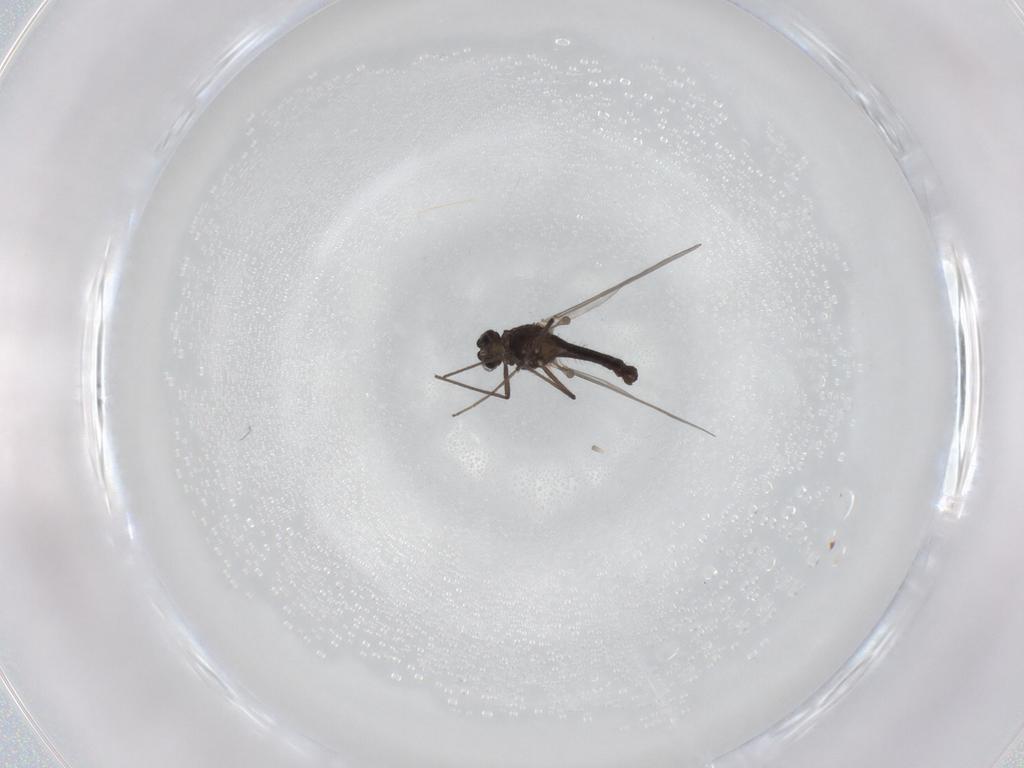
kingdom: Animalia
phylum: Arthropoda
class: Insecta
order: Diptera
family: Chironomidae
